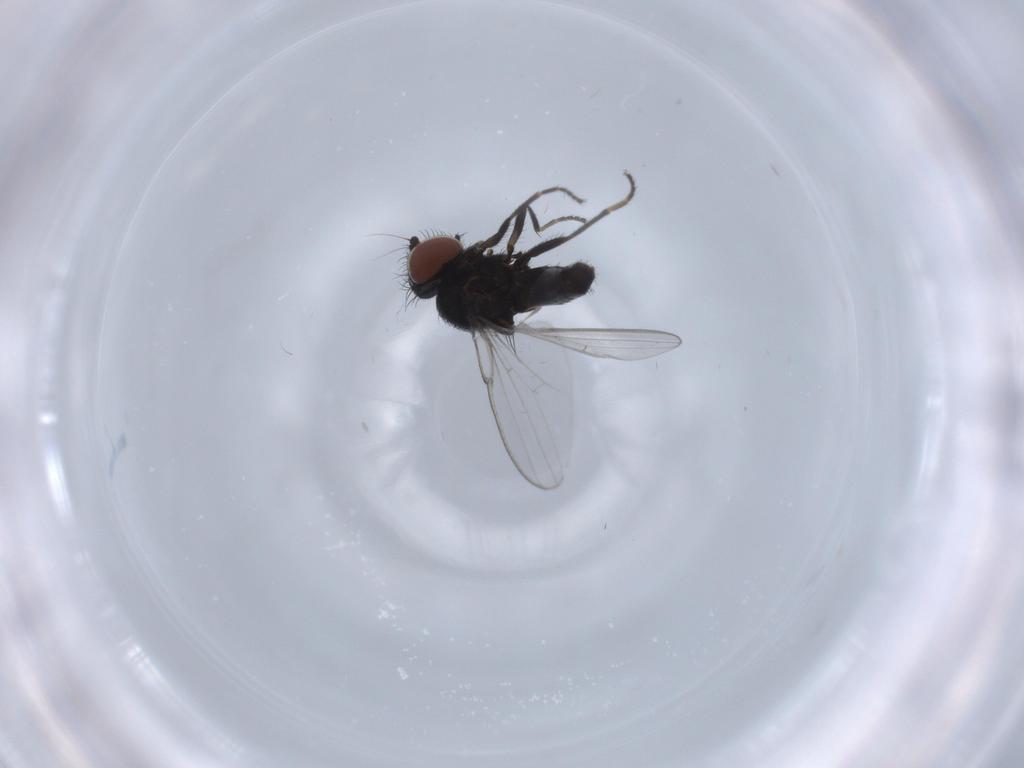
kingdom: Animalia
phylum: Arthropoda
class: Insecta
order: Diptera
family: Milichiidae
